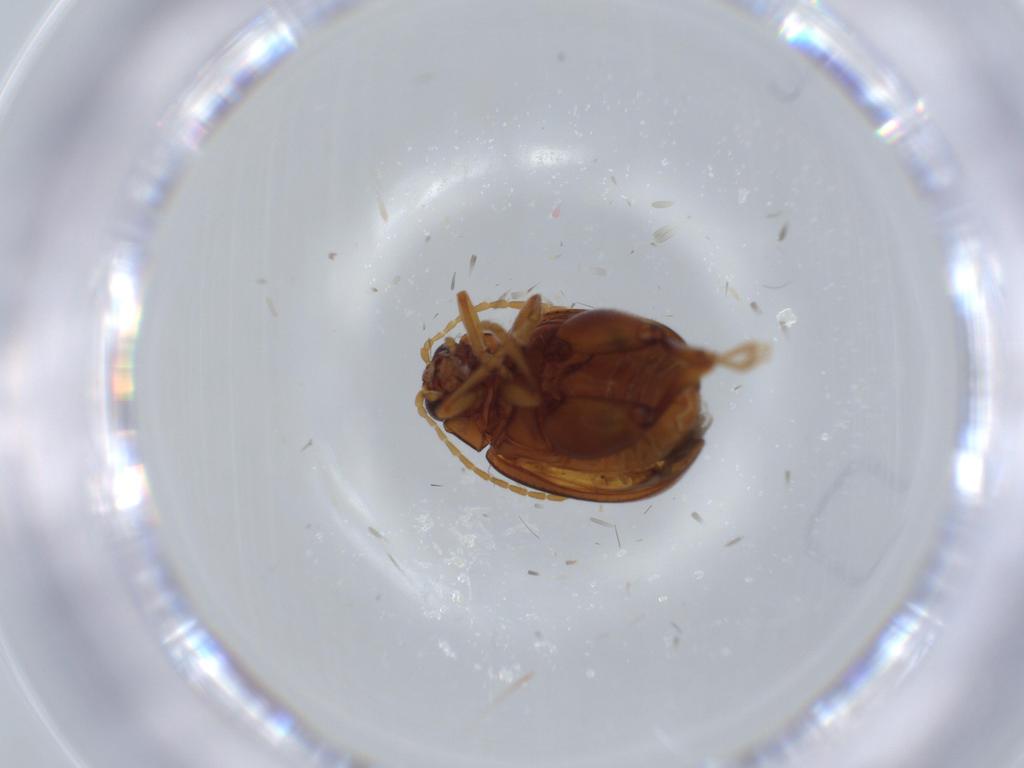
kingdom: Animalia
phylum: Arthropoda
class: Insecta
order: Coleoptera
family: Chrysomelidae
